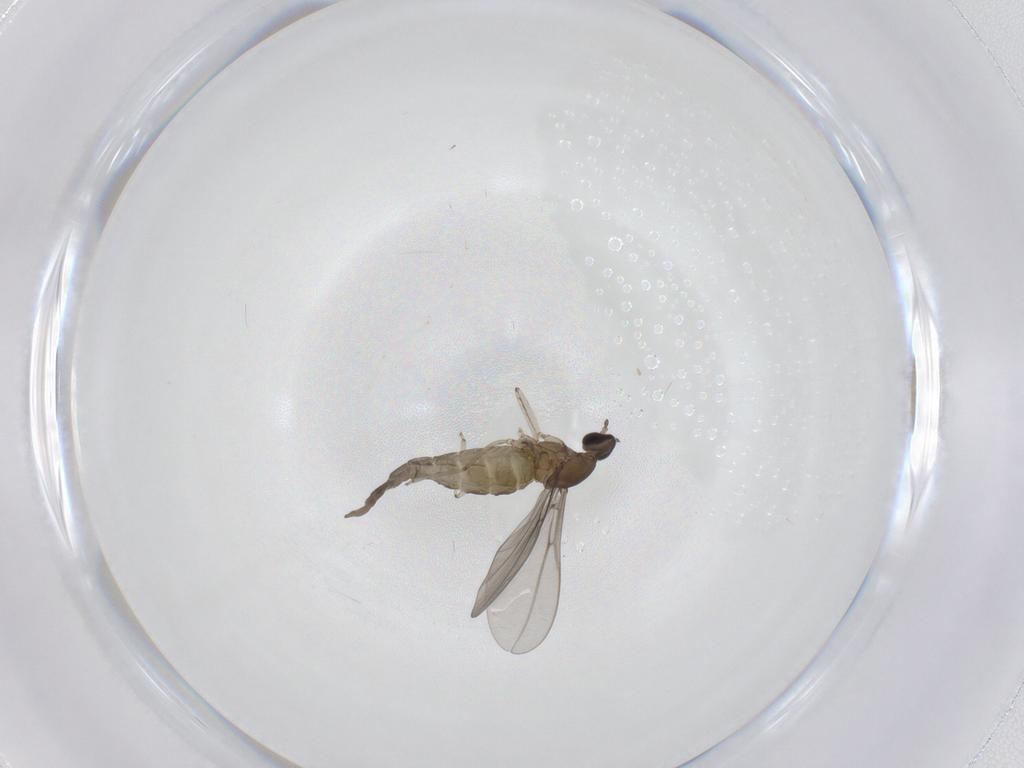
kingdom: Animalia
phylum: Arthropoda
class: Insecta
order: Diptera
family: Cecidomyiidae
